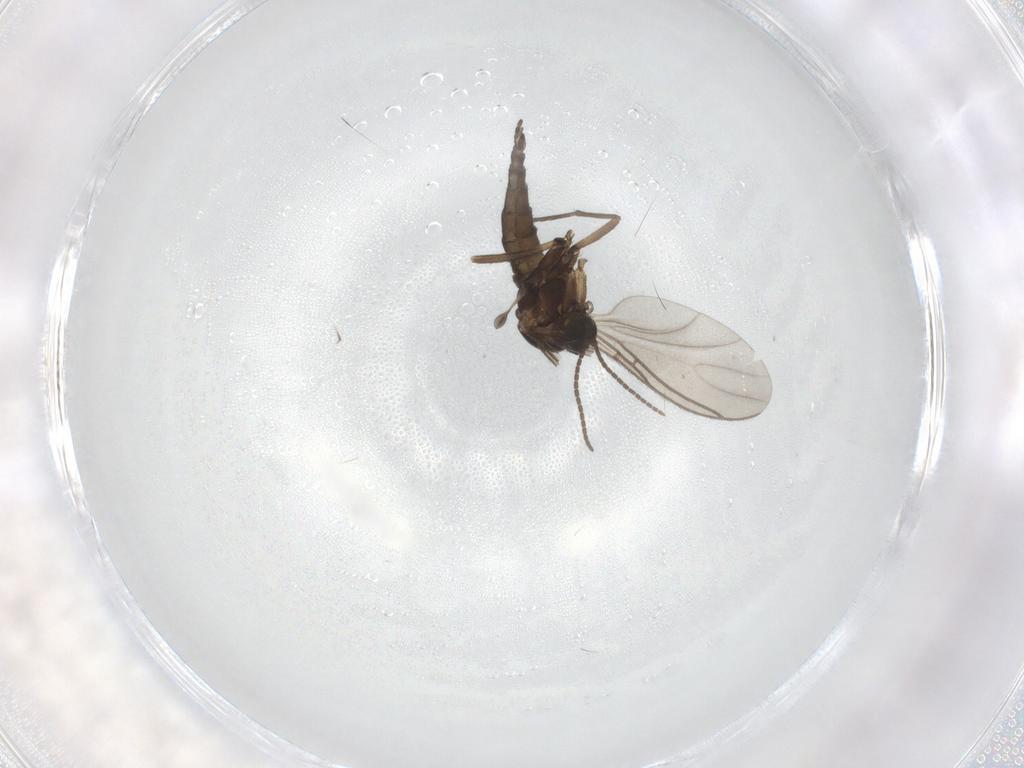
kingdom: Animalia
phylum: Arthropoda
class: Insecta
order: Diptera
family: Sciaridae
